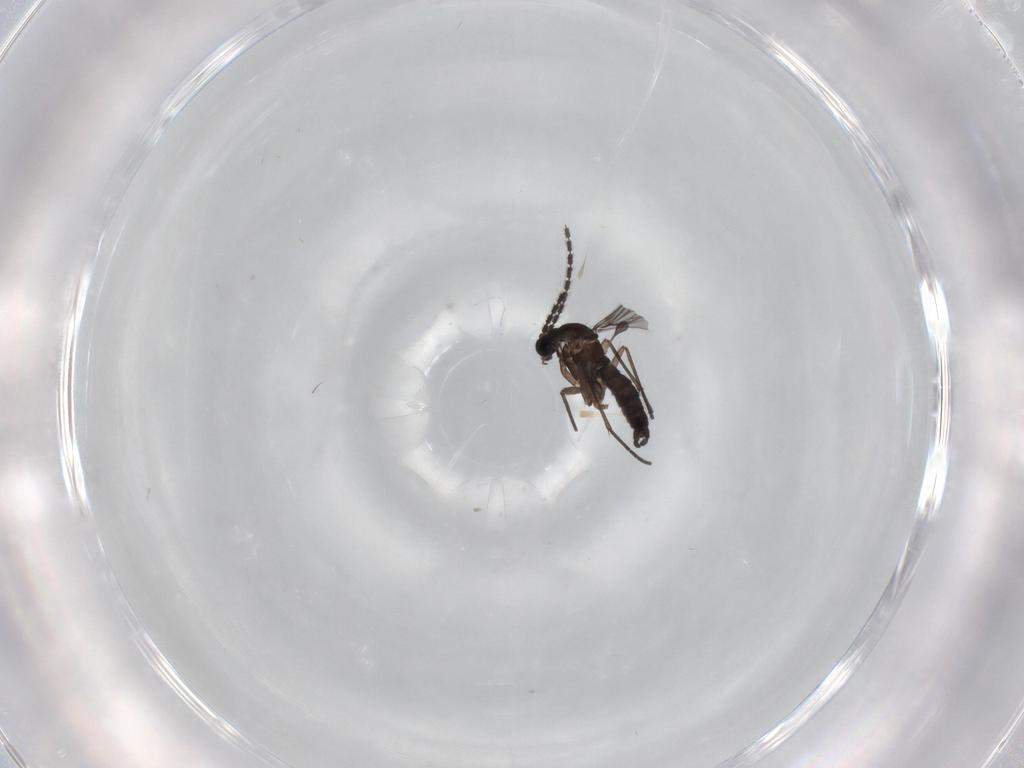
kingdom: Animalia
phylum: Arthropoda
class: Insecta
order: Diptera
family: Sciaridae
